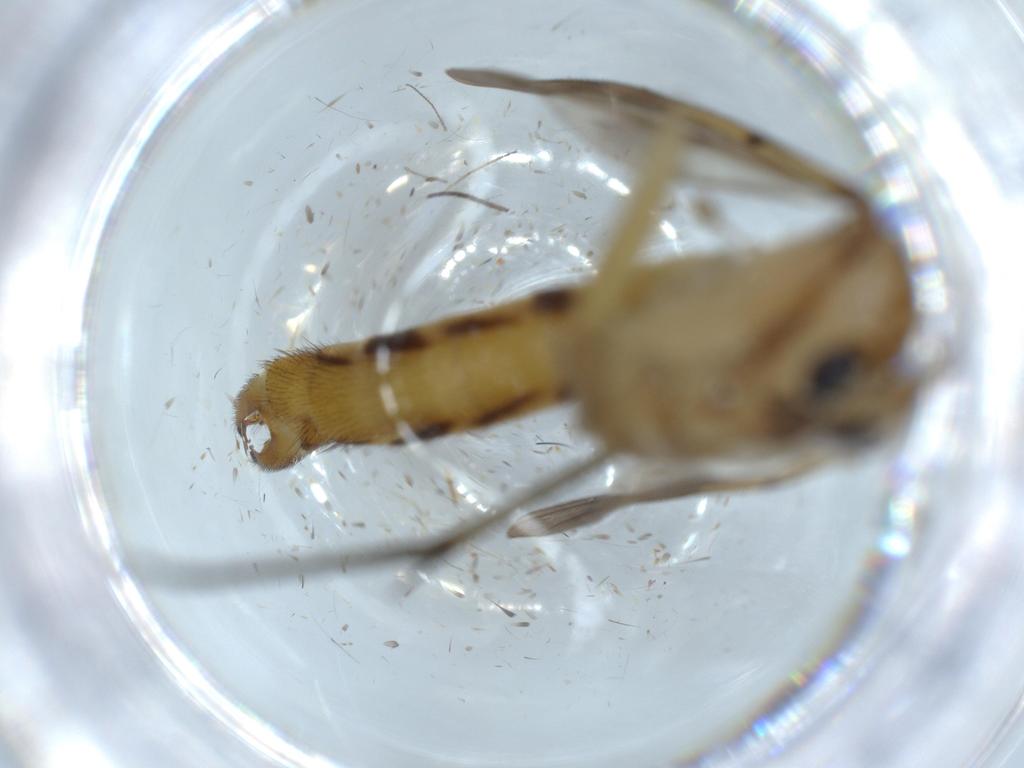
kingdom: Animalia
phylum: Arthropoda
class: Insecta
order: Diptera
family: Mycetophilidae
